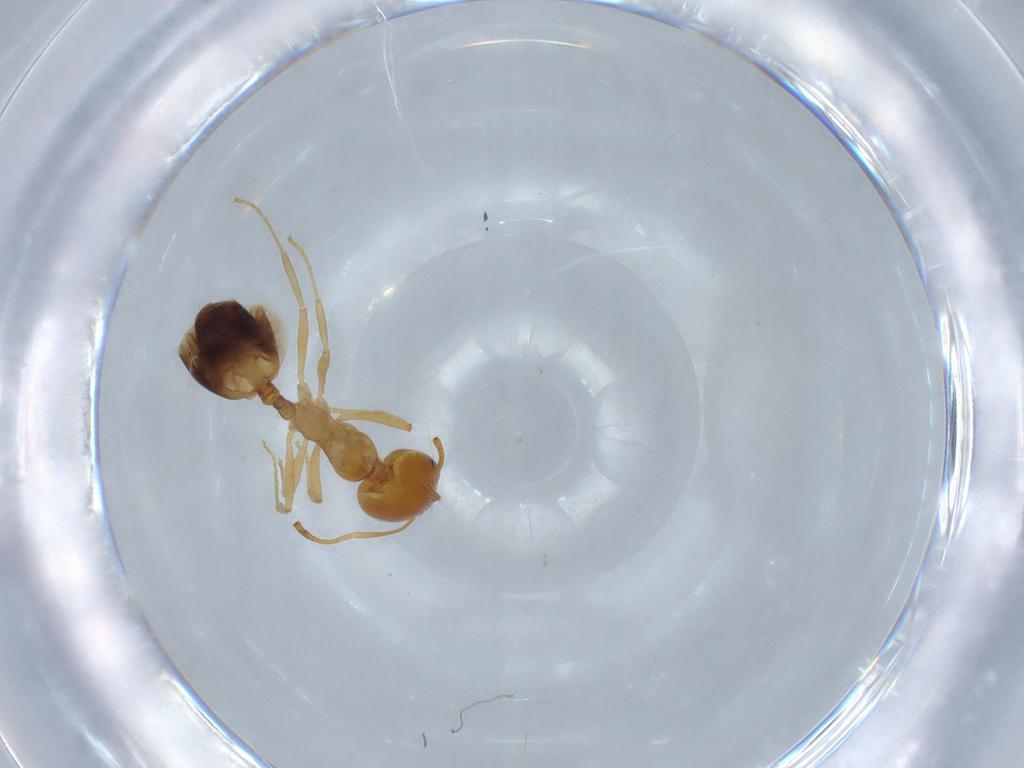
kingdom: Animalia
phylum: Arthropoda
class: Insecta
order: Hymenoptera
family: Formicidae
